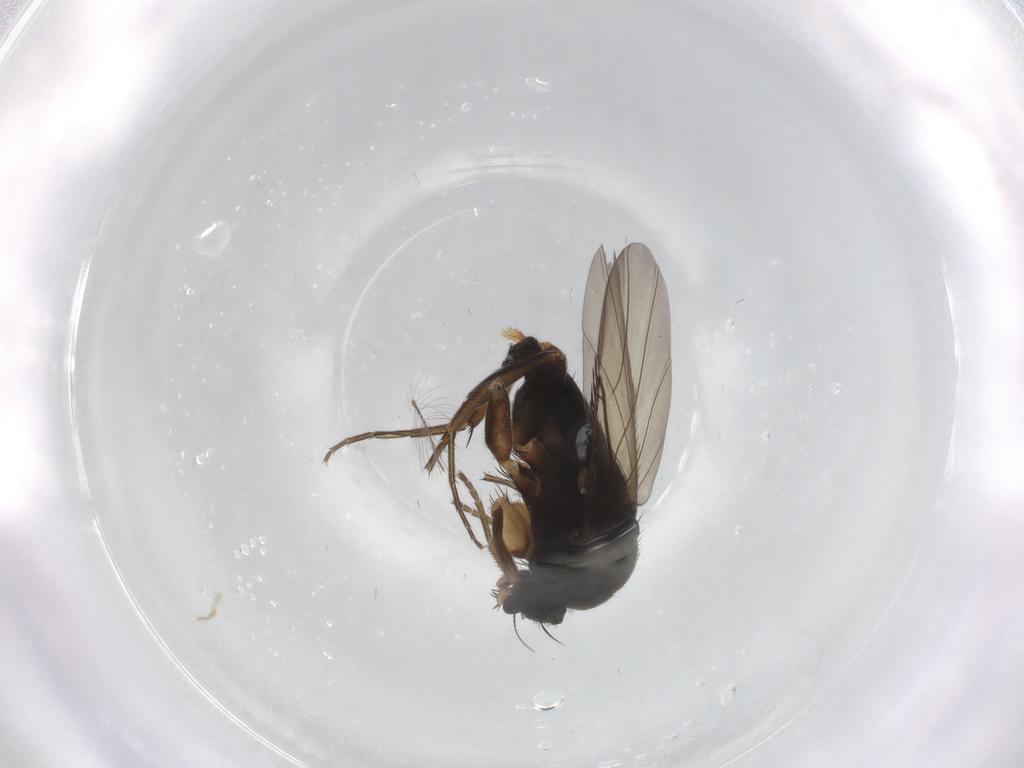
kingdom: Animalia
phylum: Arthropoda
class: Insecta
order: Diptera
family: Phoridae
